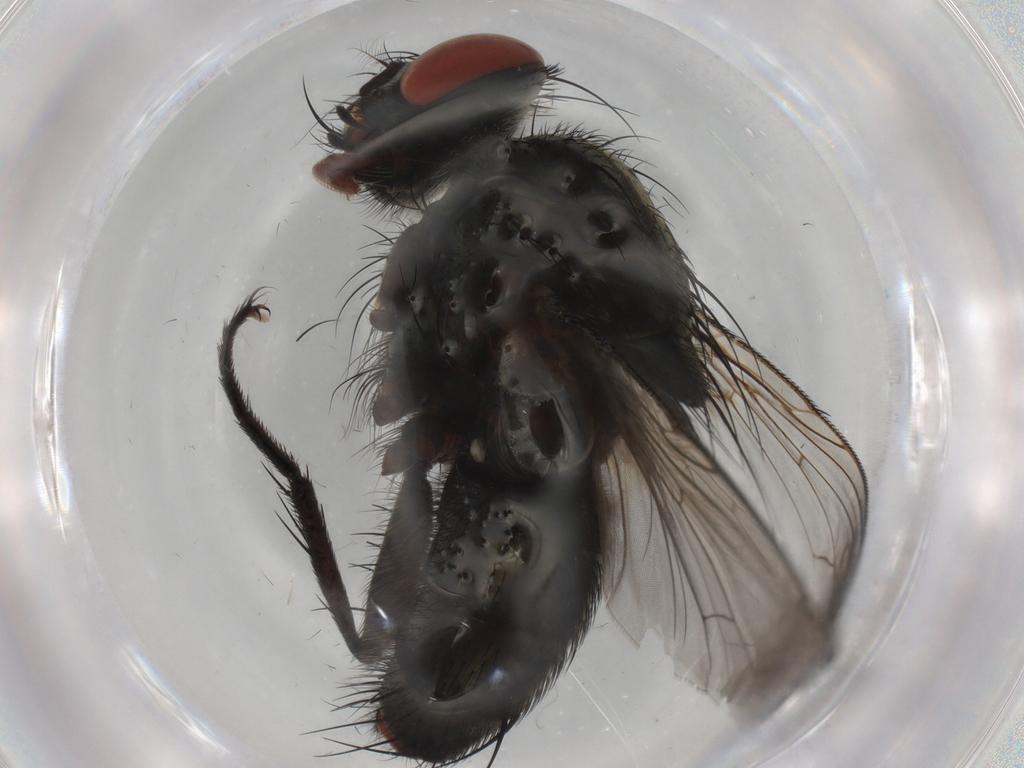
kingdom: Animalia
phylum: Arthropoda
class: Insecta
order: Diptera
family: Sarcophagidae
